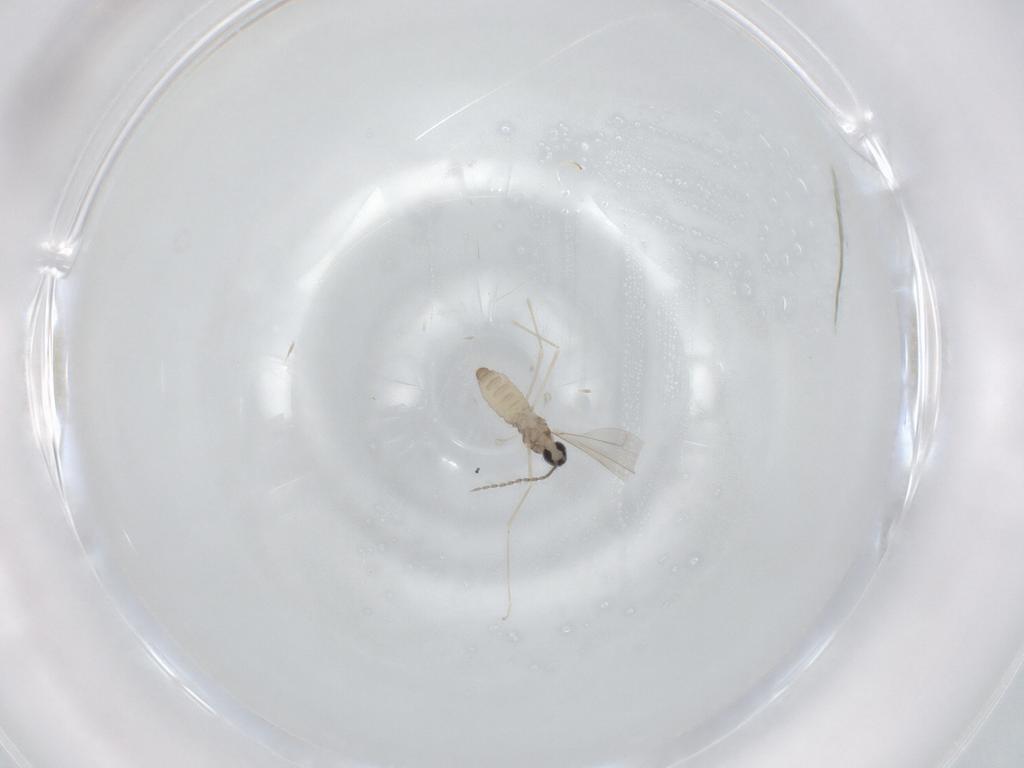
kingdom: Animalia
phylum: Arthropoda
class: Insecta
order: Diptera
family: Cecidomyiidae
